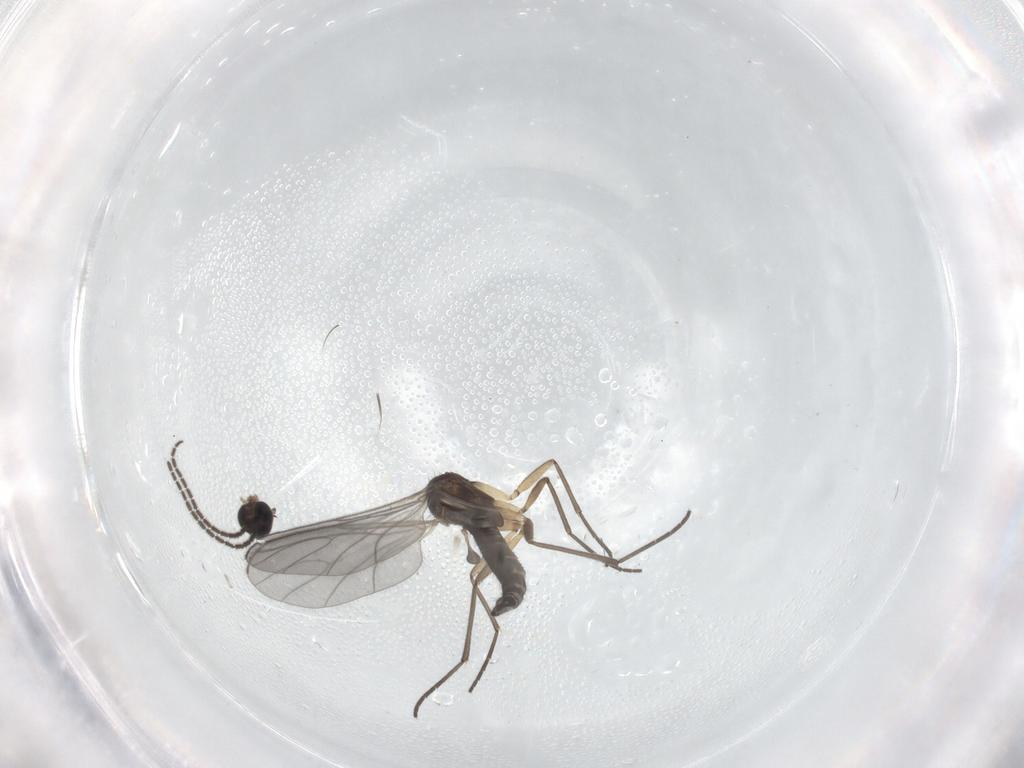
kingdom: Animalia
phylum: Arthropoda
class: Insecta
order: Diptera
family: Sciaridae
